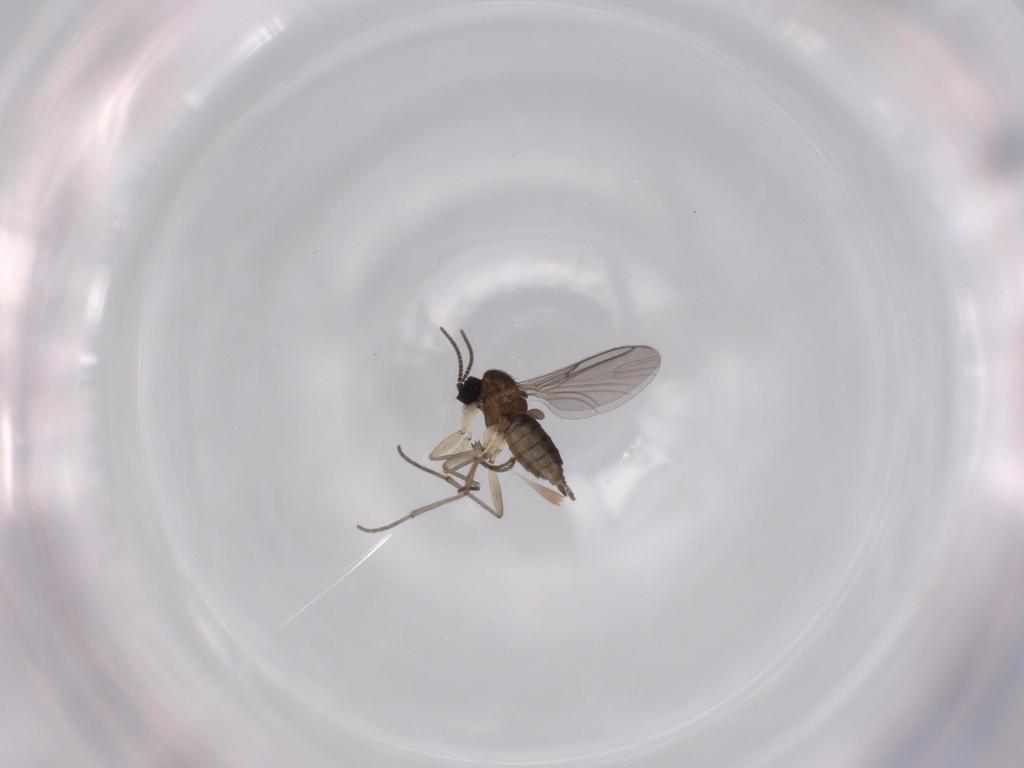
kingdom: Animalia
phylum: Arthropoda
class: Insecta
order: Diptera
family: Sciaridae
